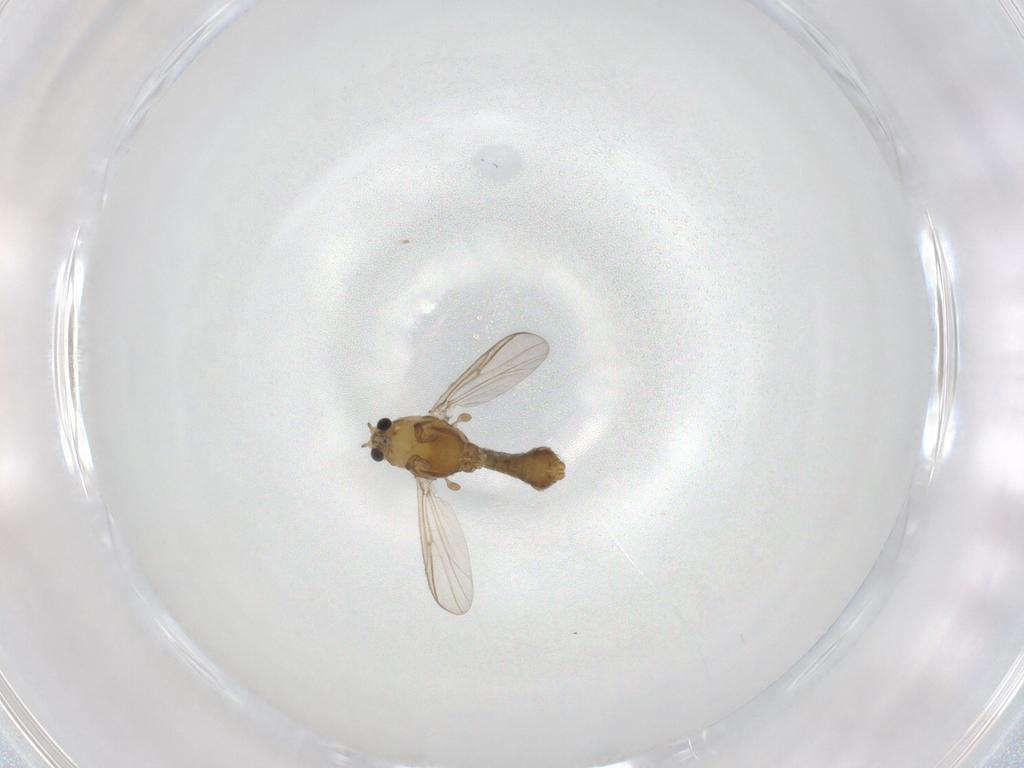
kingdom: Animalia
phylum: Arthropoda
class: Insecta
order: Diptera
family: Chironomidae
